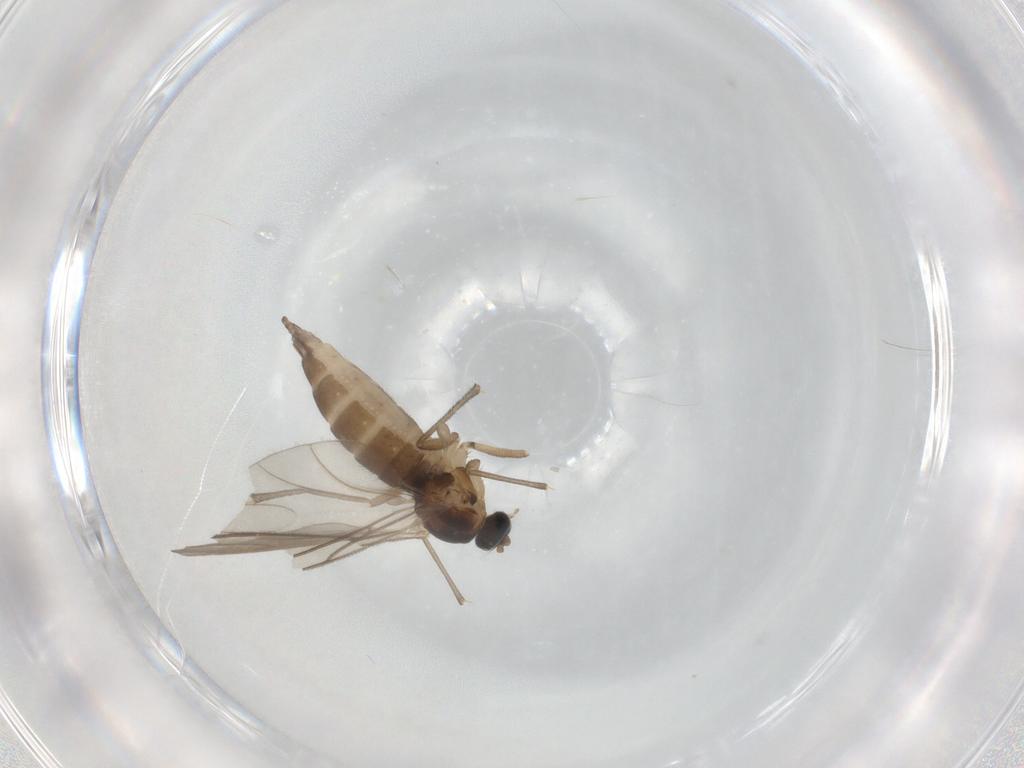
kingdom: Animalia
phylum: Arthropoda
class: Insecta
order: Diptera
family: Sciaridae
